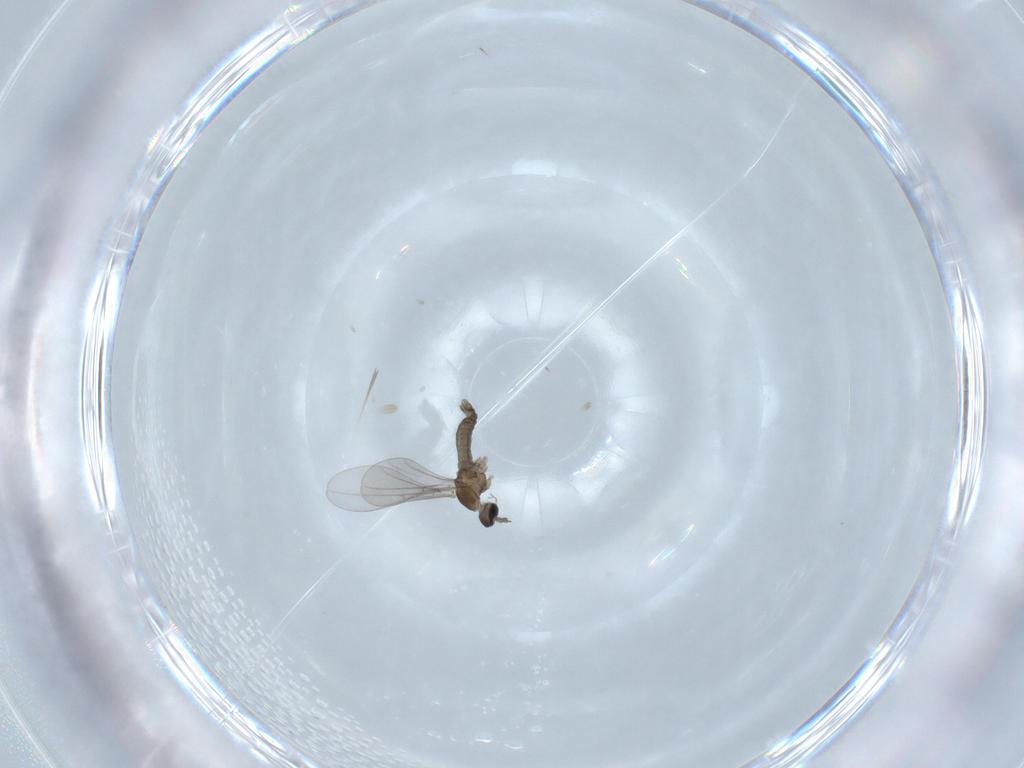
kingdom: Animalia
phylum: Arthropoda
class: Insecta
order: Diptera
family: Cecidomyiidae
